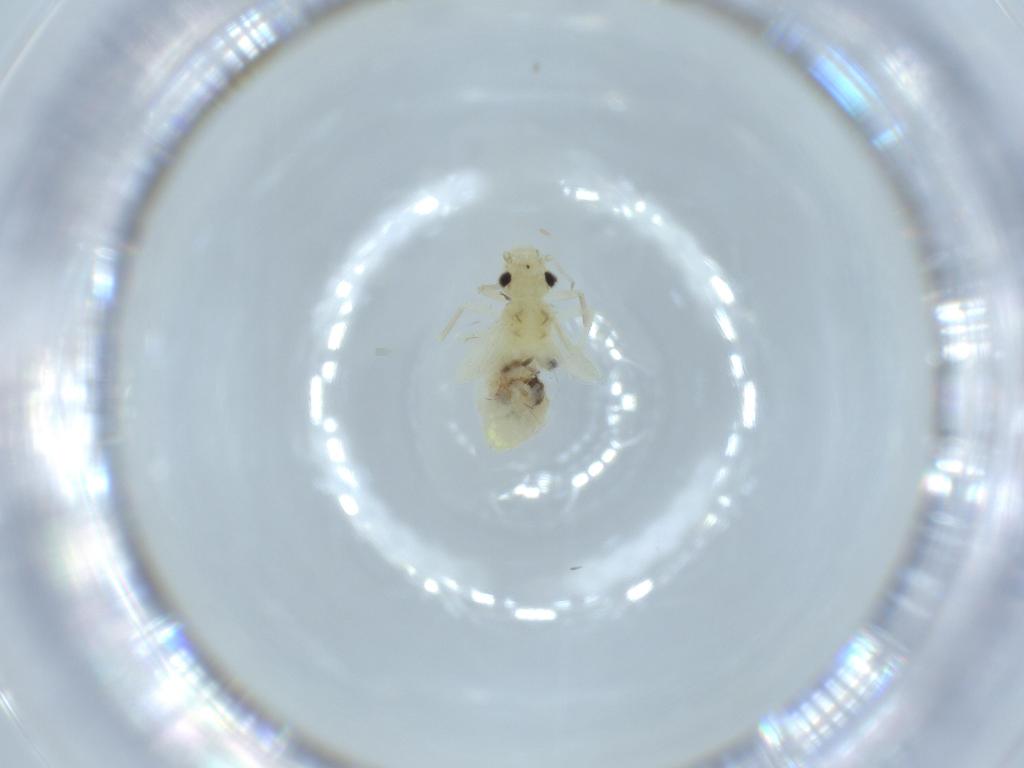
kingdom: Animalia
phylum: Arthropoda
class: Insecta
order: Psocodea
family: Caeciliusidae
